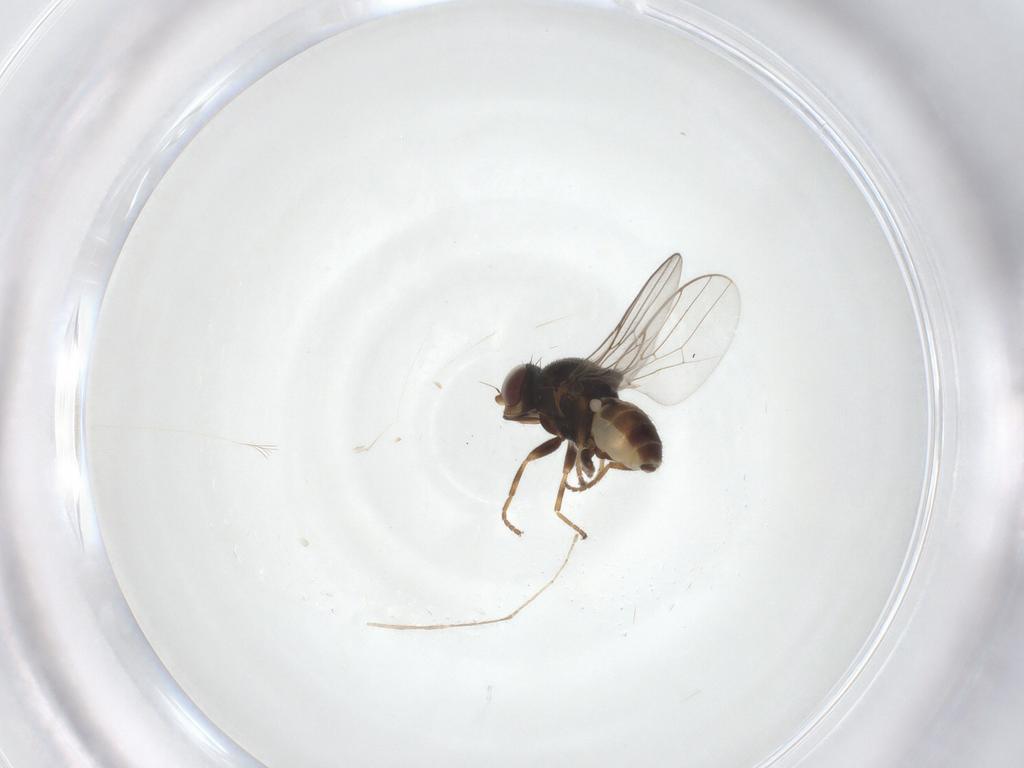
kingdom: Animalia
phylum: Arthropoda
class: Insecta
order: Diptera
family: Chloropidae
